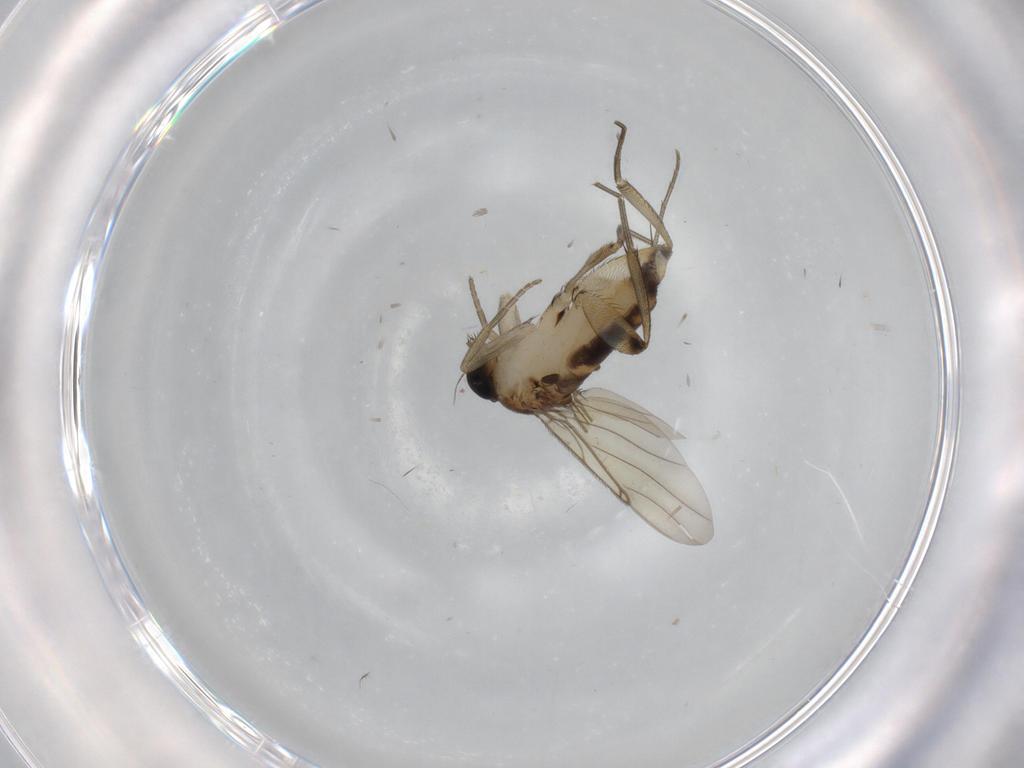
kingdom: Animalia
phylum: Arthropoda
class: Insecta
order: Diptera
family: Phoridae
